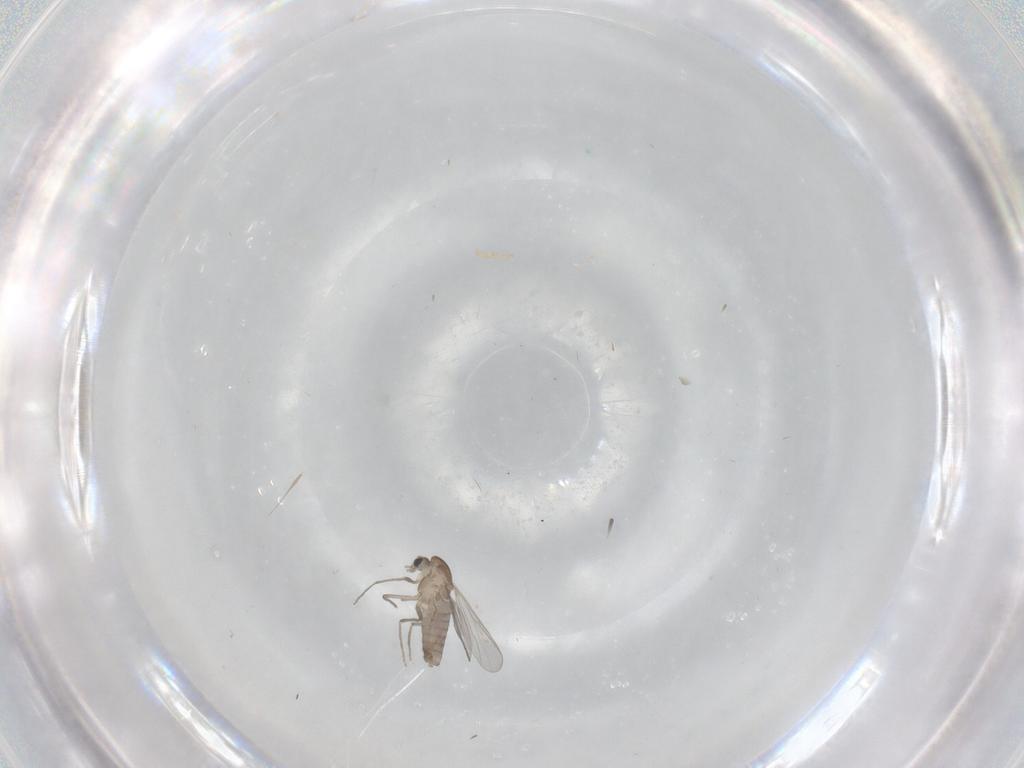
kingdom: Animalia
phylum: Arthropoda
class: Insecta
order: Diptera
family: Chironomidae
